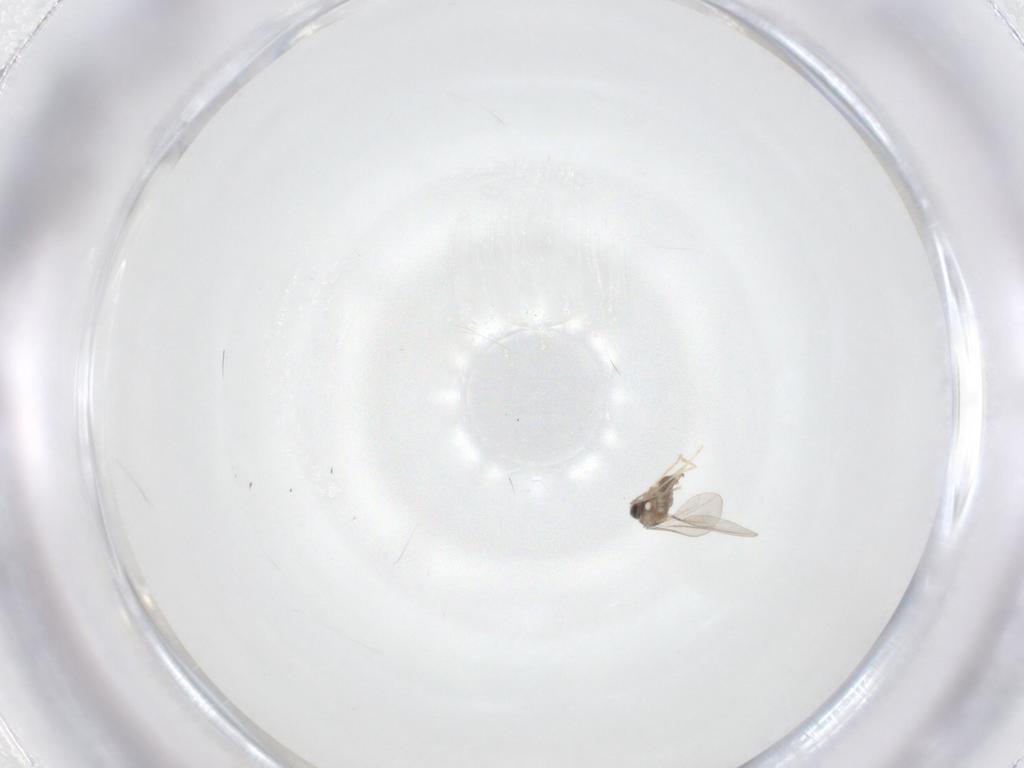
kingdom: Animalia
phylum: Arthropoda
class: Insecta
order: Diptera
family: Cecidomyiidae
